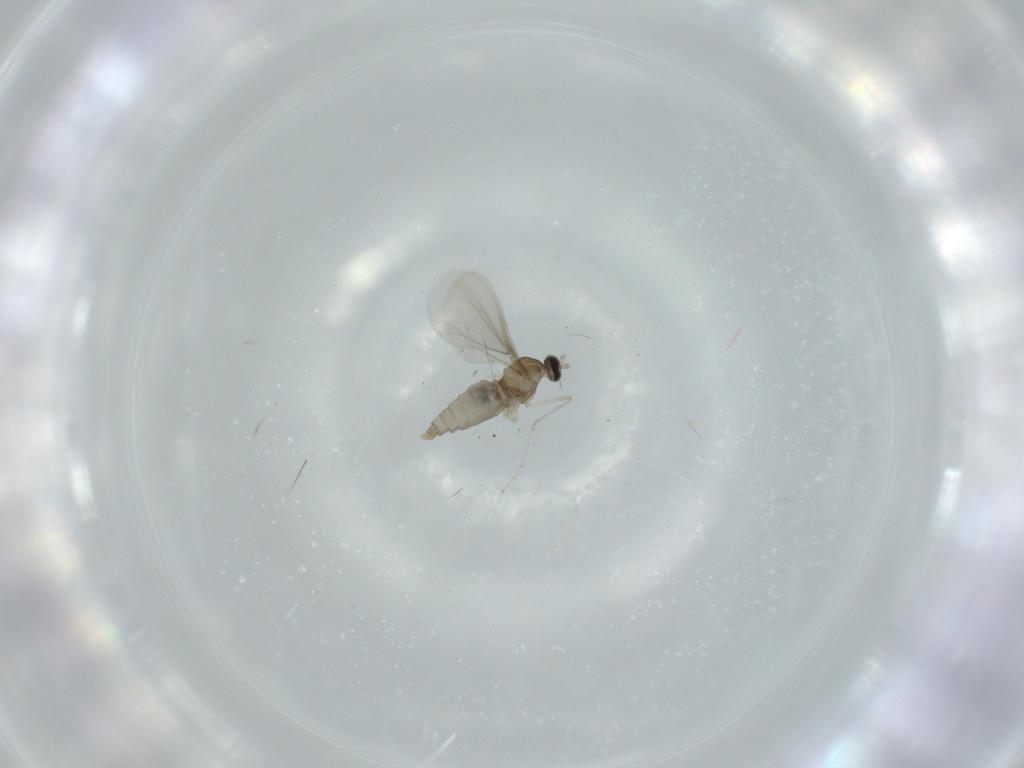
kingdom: Animalia
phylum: Arthropoda
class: Insecta
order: Diptera
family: Cecidomyiidae
